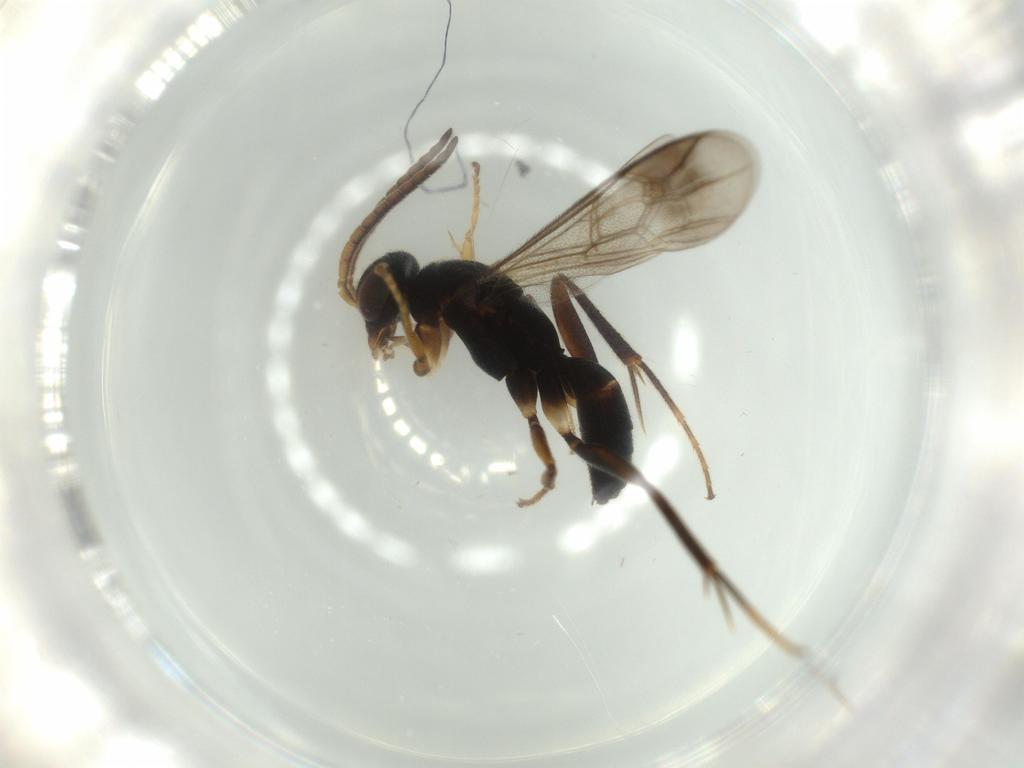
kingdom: Animalia
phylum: Arthropoda
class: Insecta
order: Hymenoptera
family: Pompilidae
